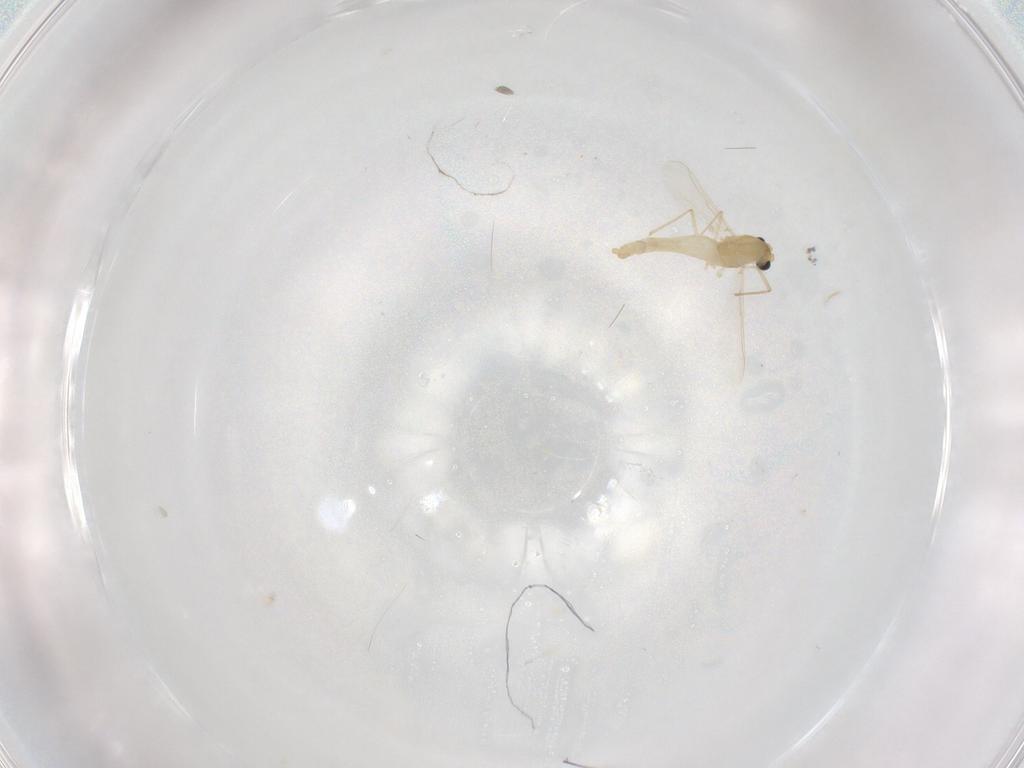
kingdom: Animalia
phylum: Arthropoda
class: Insecta
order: Diptera
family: Chironomidae
